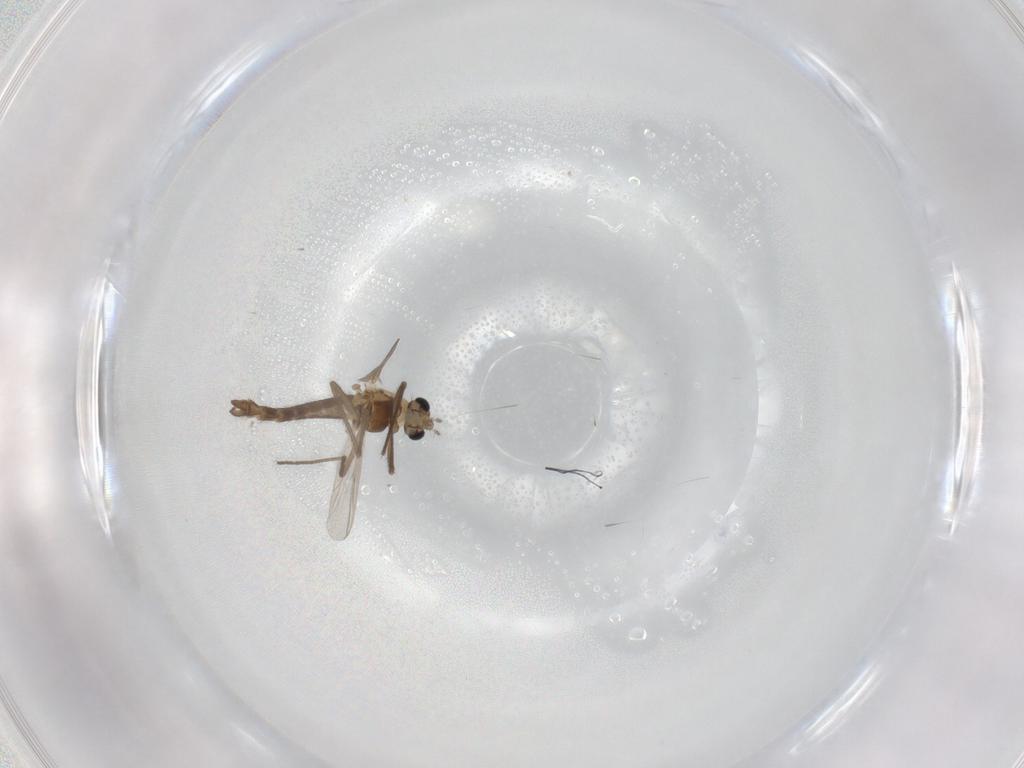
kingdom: Animalia
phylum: Arthropoda
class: Insecta
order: Diptera
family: Chironomidae
